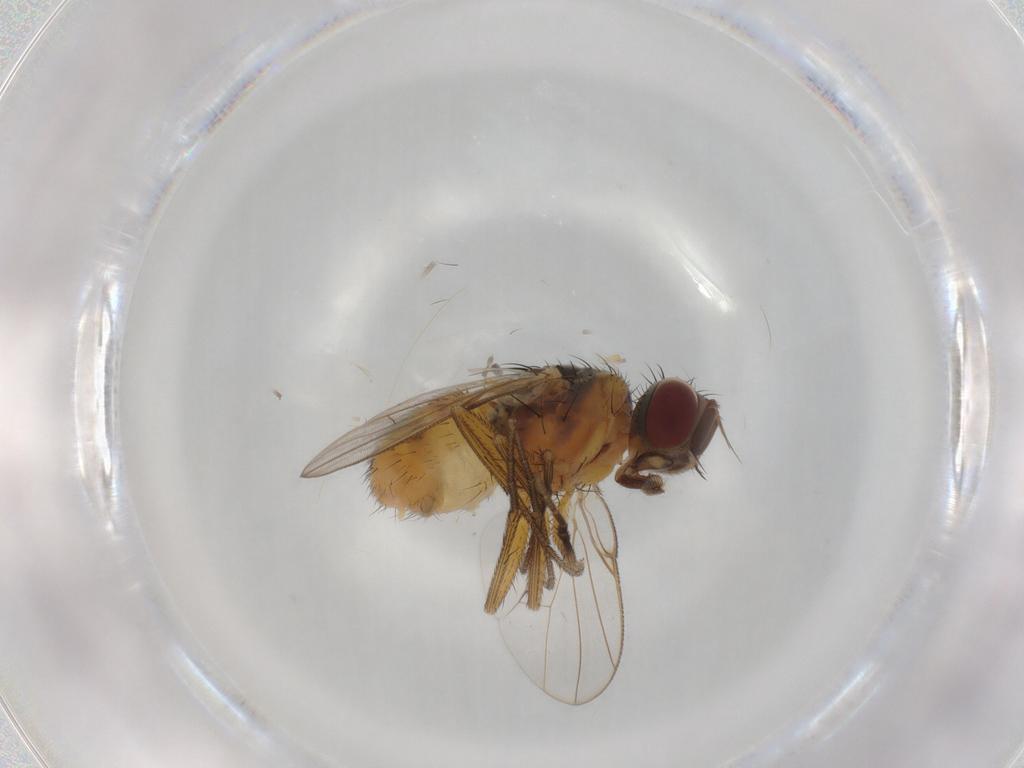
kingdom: Animalia
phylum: Arthropoda
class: Insecta
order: Diptera
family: Muscidae
